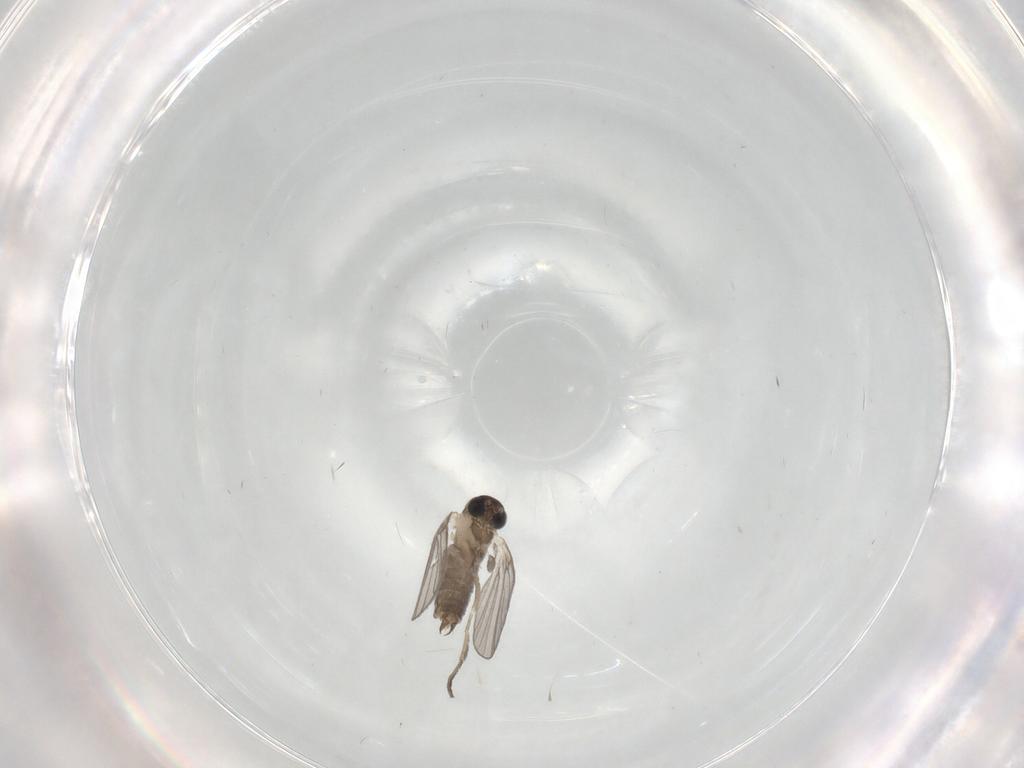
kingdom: Animalia
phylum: Arthropoda
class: Insecta
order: Diptera
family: Psychodidae
